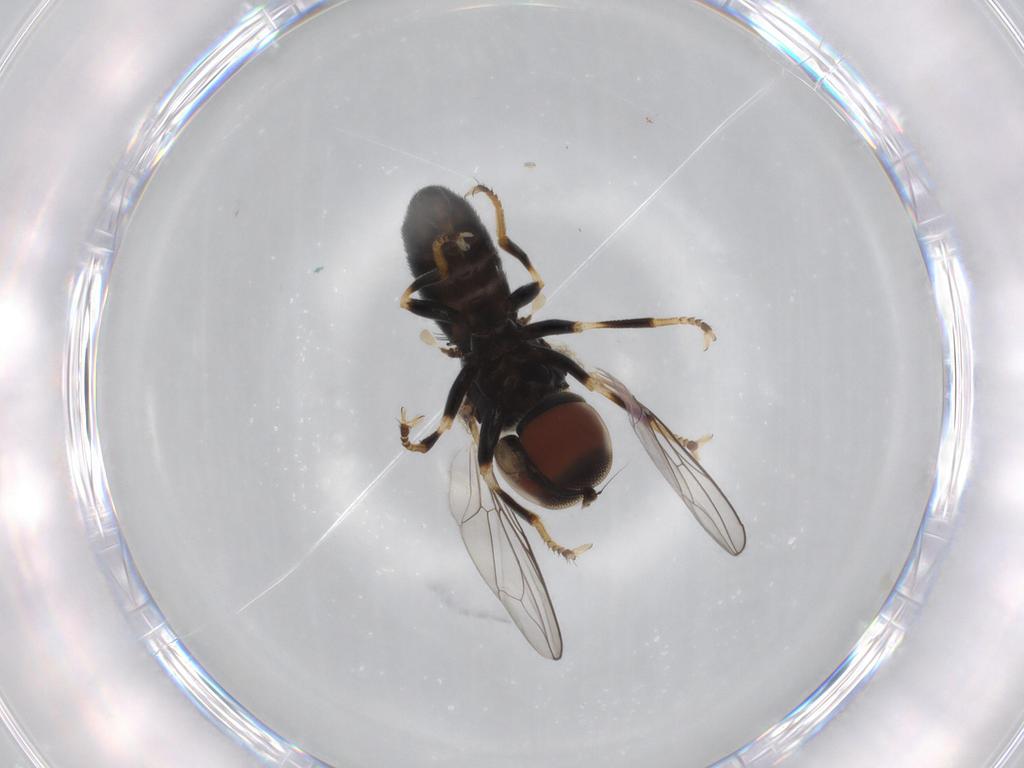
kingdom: Animalia
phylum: Arthropoda
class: Insecta
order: Diptera
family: Pipunculidae
